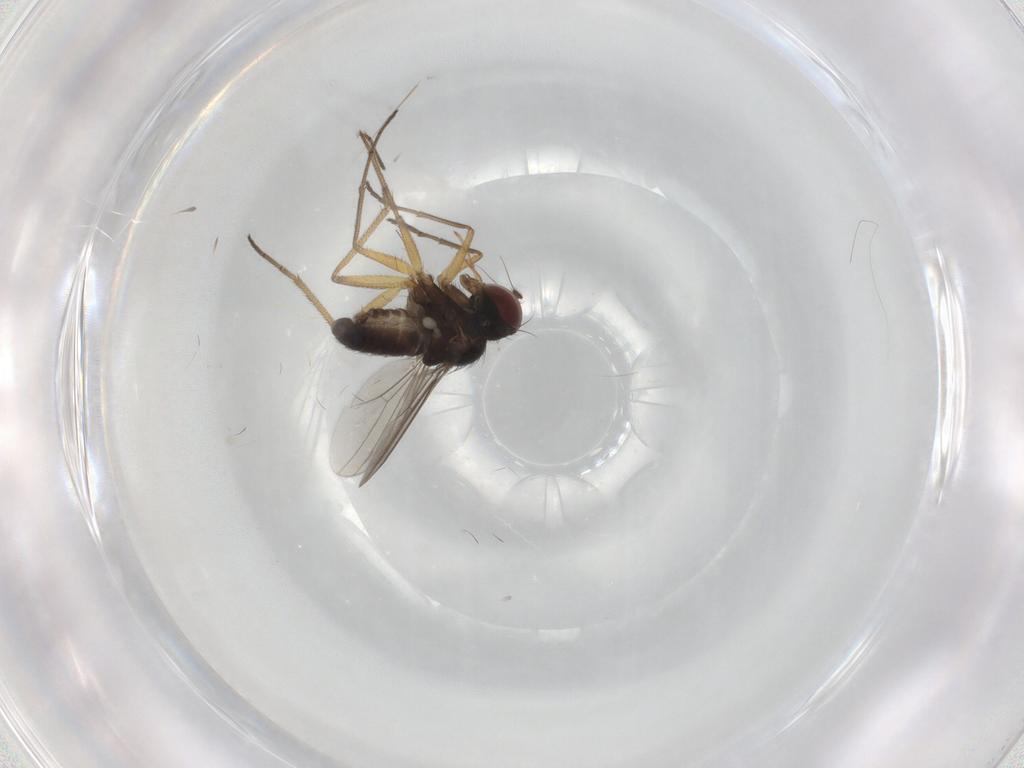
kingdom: Animalia
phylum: Arthropoda
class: Insecta
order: Diptera
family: Dolichopodidae
